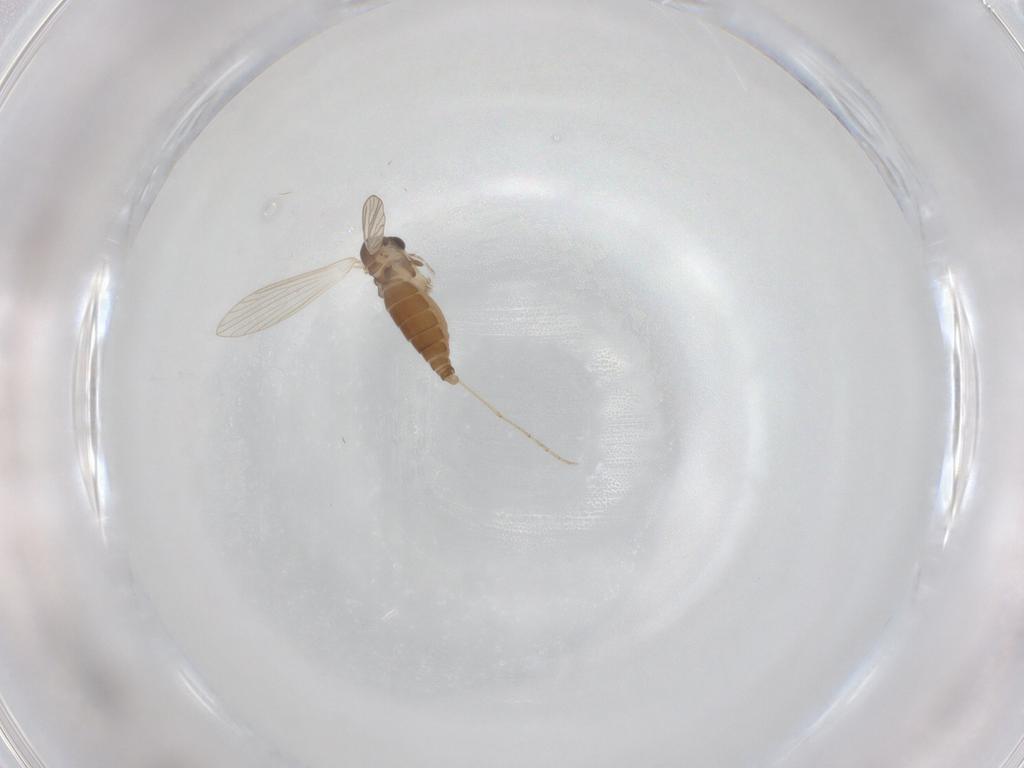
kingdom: Animalia
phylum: Arthropoda
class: Insecta
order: Diptera
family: Psychodidae
